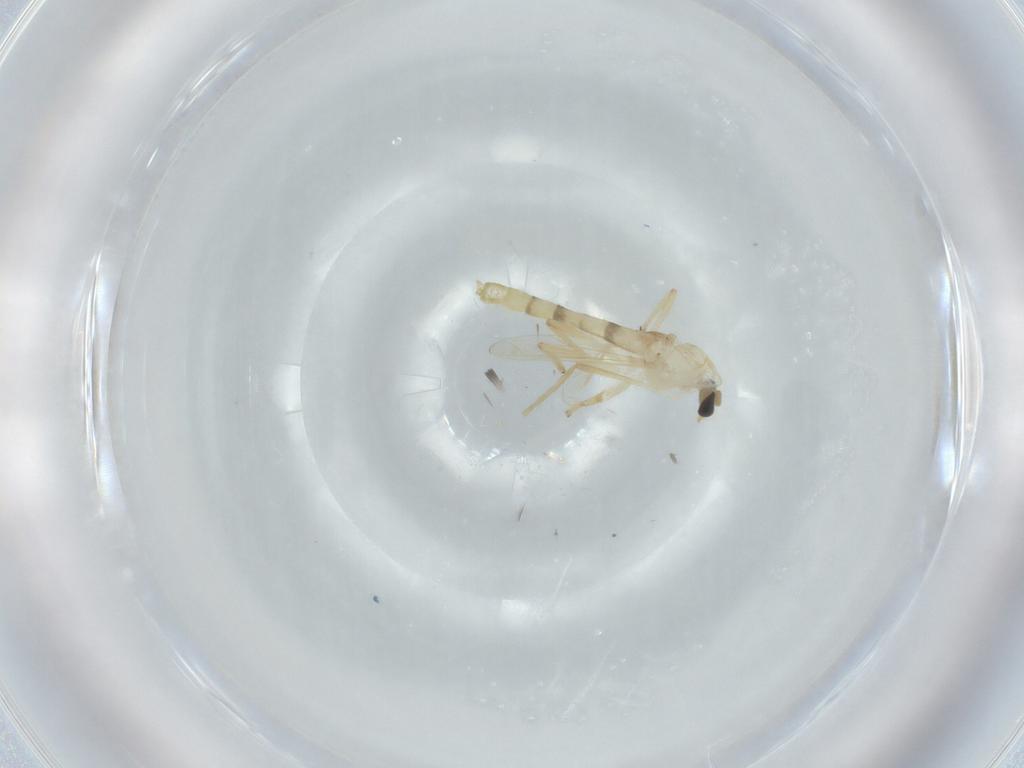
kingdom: Animalia
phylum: Arthropoda
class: Insecta
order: Diptera
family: Chironomidae
